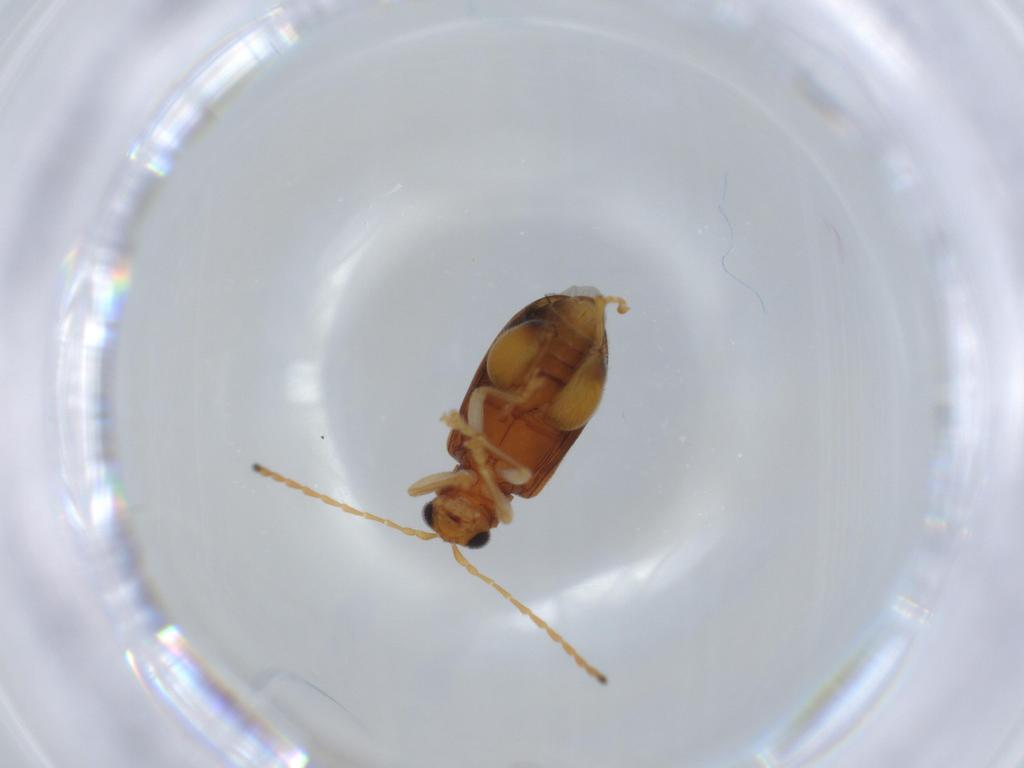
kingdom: Animalia
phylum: Arthropoda
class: Insecta
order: Coleoptera
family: Chrysomelidae
